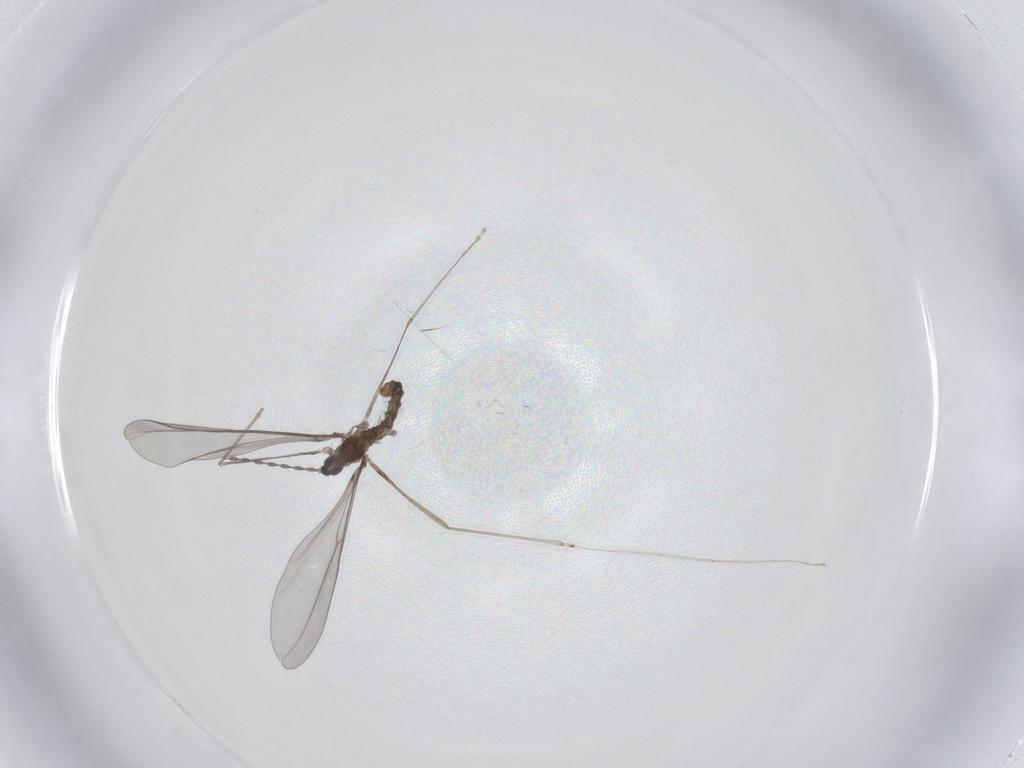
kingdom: Animalia
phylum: Arthropoda
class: Insecta
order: Diptera
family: Cecidomyiidae
